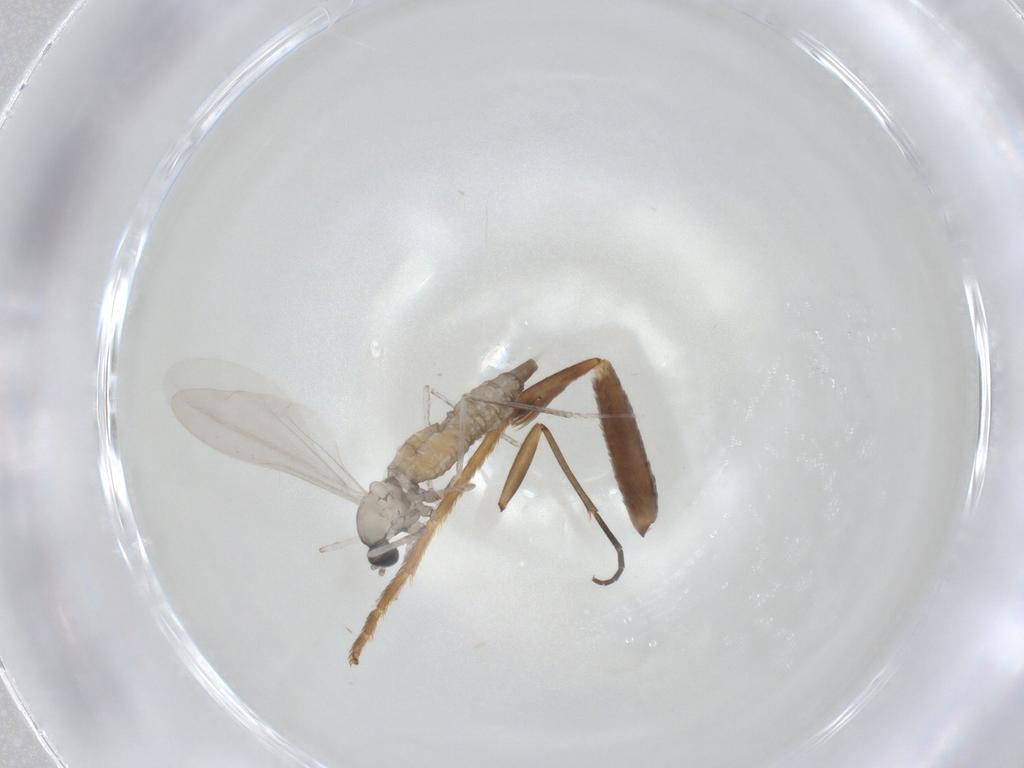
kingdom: Animalia
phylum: Arthropoda
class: Insecta
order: Diptera
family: Cecidomyiidae
